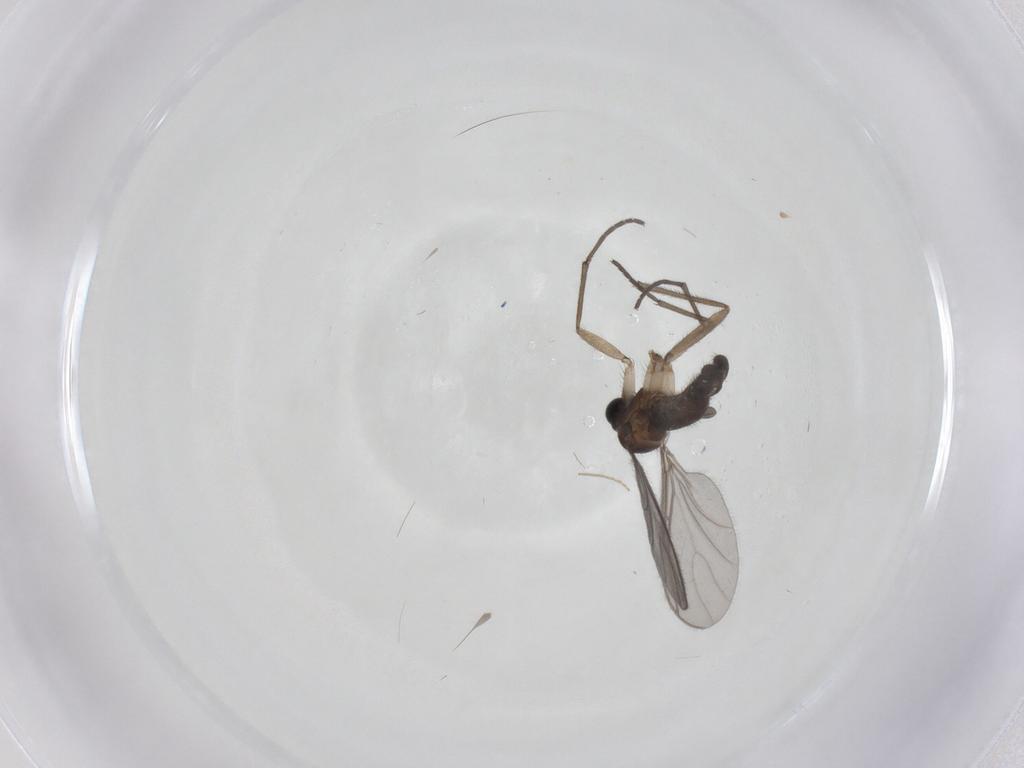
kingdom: Animalia
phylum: Arthropoda
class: Insecta
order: Diptera
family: Sciaridae
